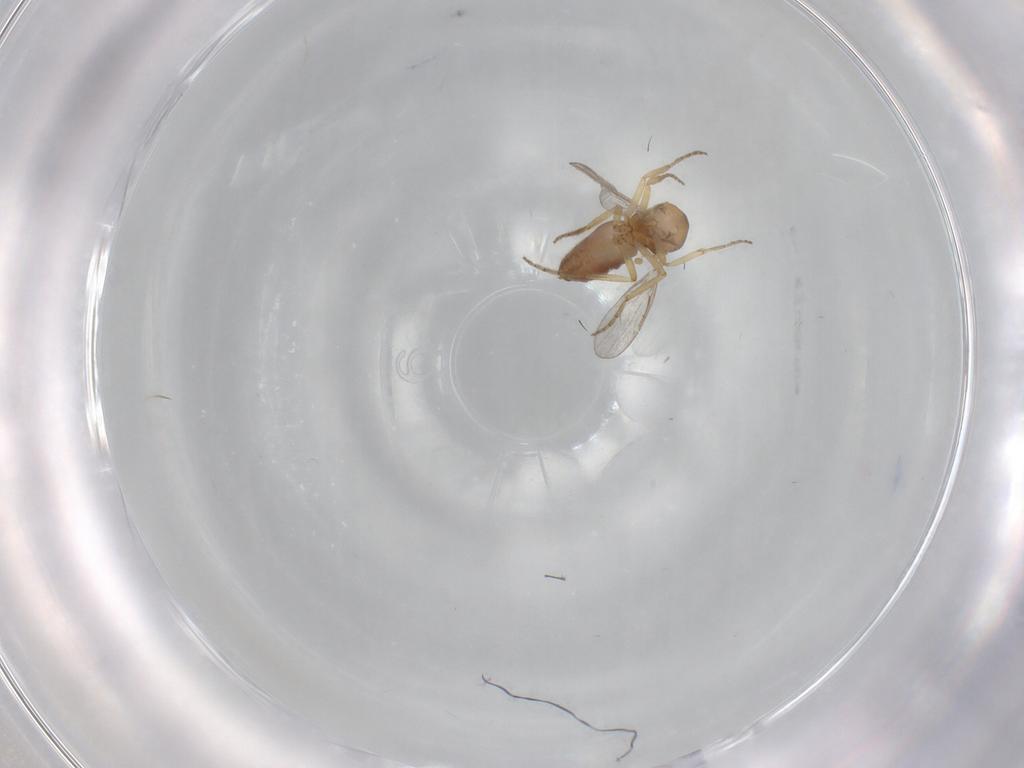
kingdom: Animalia
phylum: Arthropoda
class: Insecta
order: Diptera
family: Ceratopogonidae
